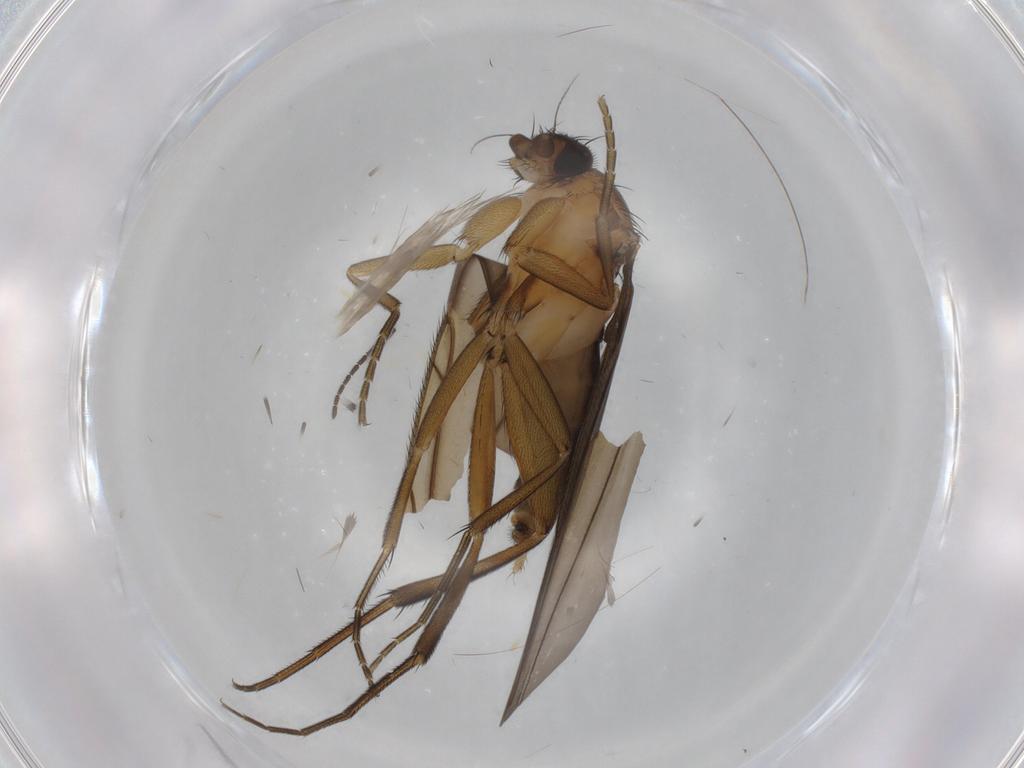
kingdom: Animalia
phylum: Arthropoda
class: Insecta
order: Diptera
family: Phoridae
